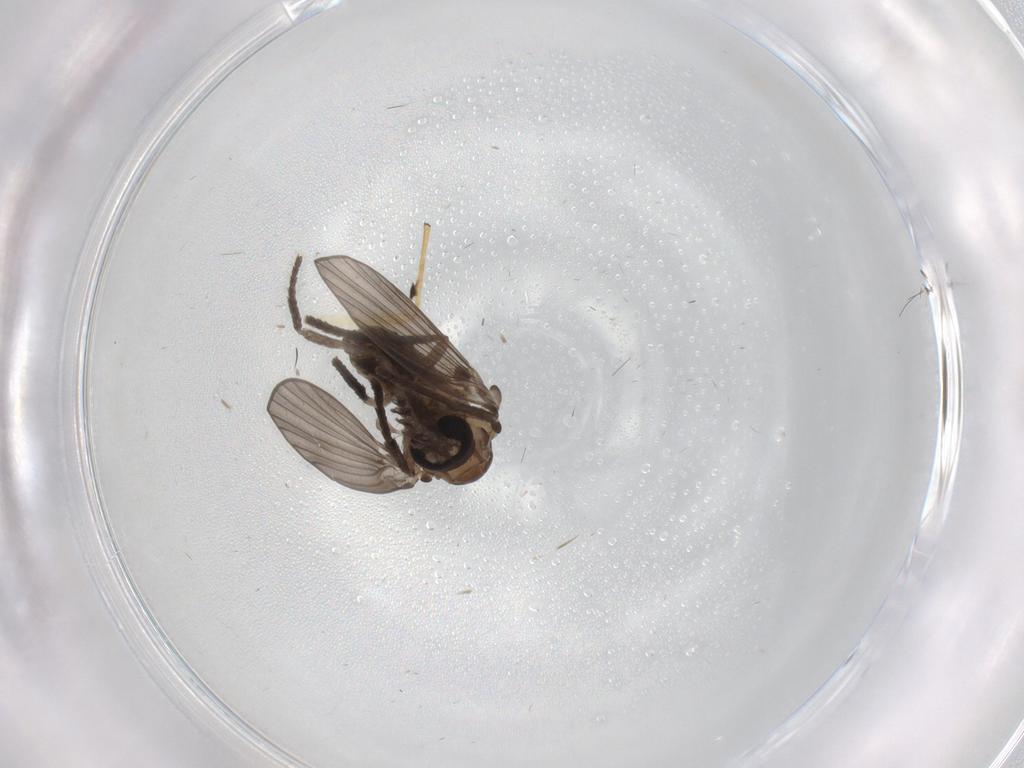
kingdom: Animalia
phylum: Arthropoda
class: Insecta
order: Diptera
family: Psychodidae
